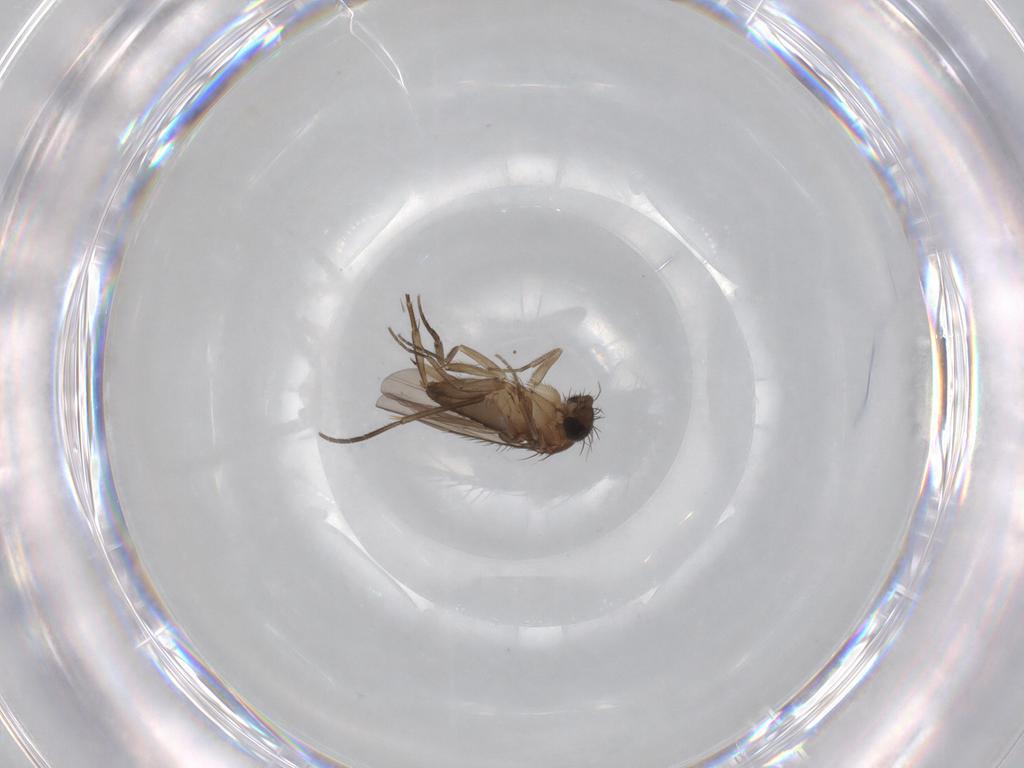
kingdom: Animalia
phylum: Arthropoda
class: Insecta
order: Diptera
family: Phoridae
